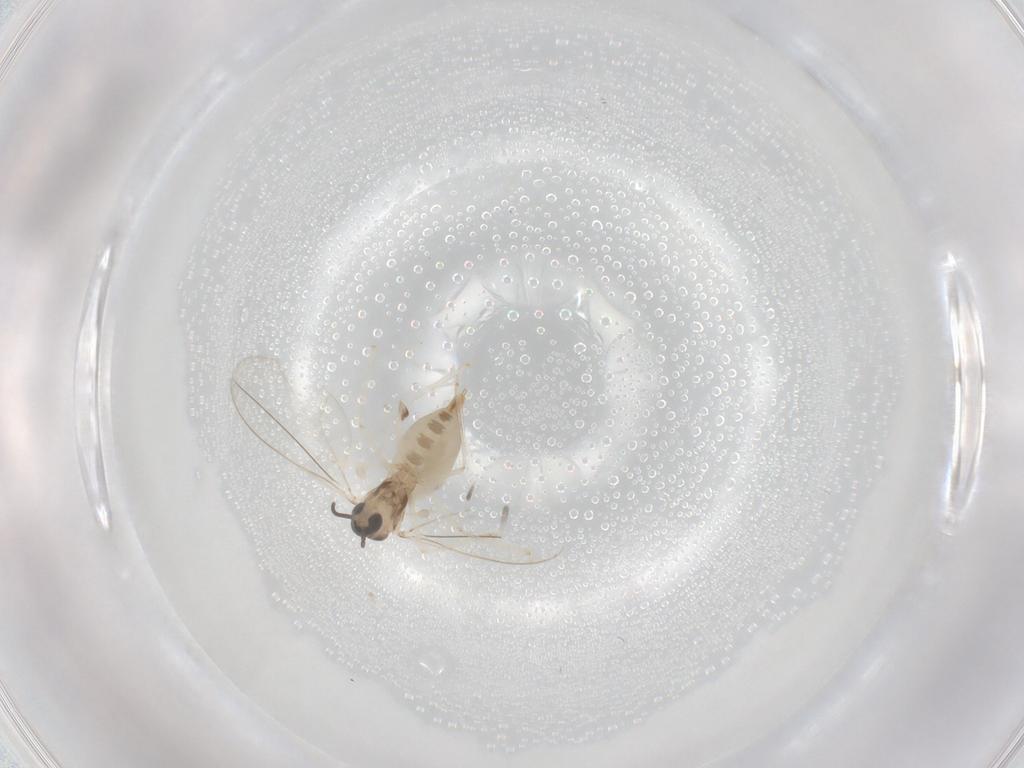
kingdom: Animalia
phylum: Arthropoda
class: Insecta
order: Diptera
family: Cecidomyiidae
